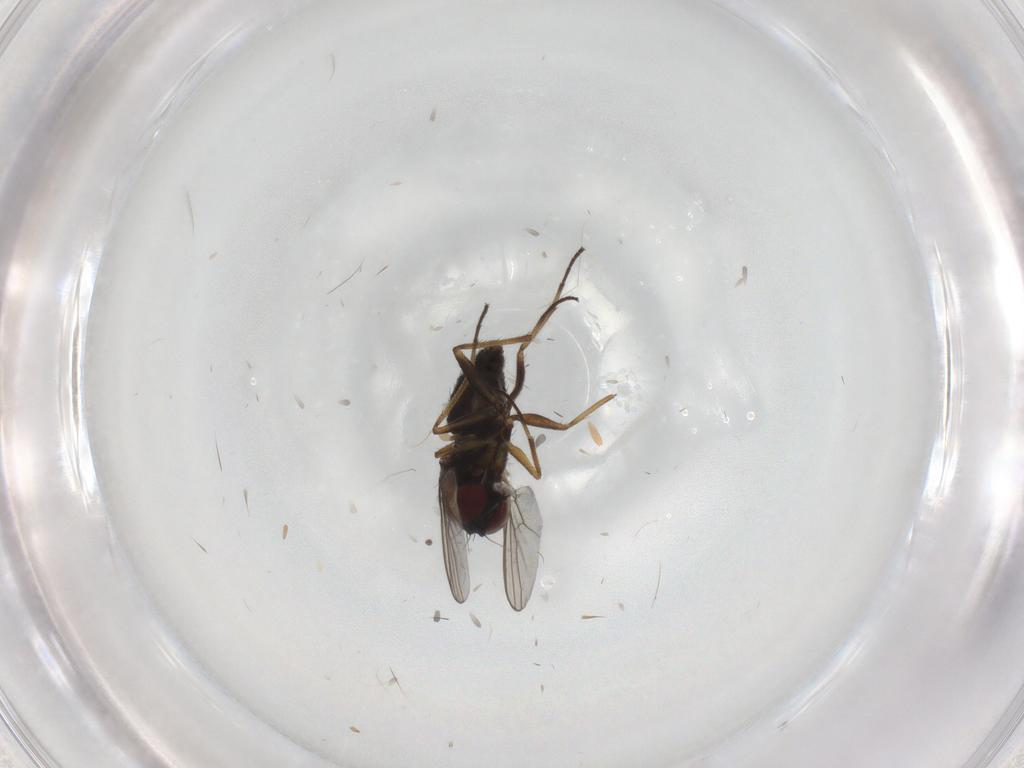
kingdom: Animalia
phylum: Arthropoda
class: Insecta
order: Diptera
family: Dolichopodidae
